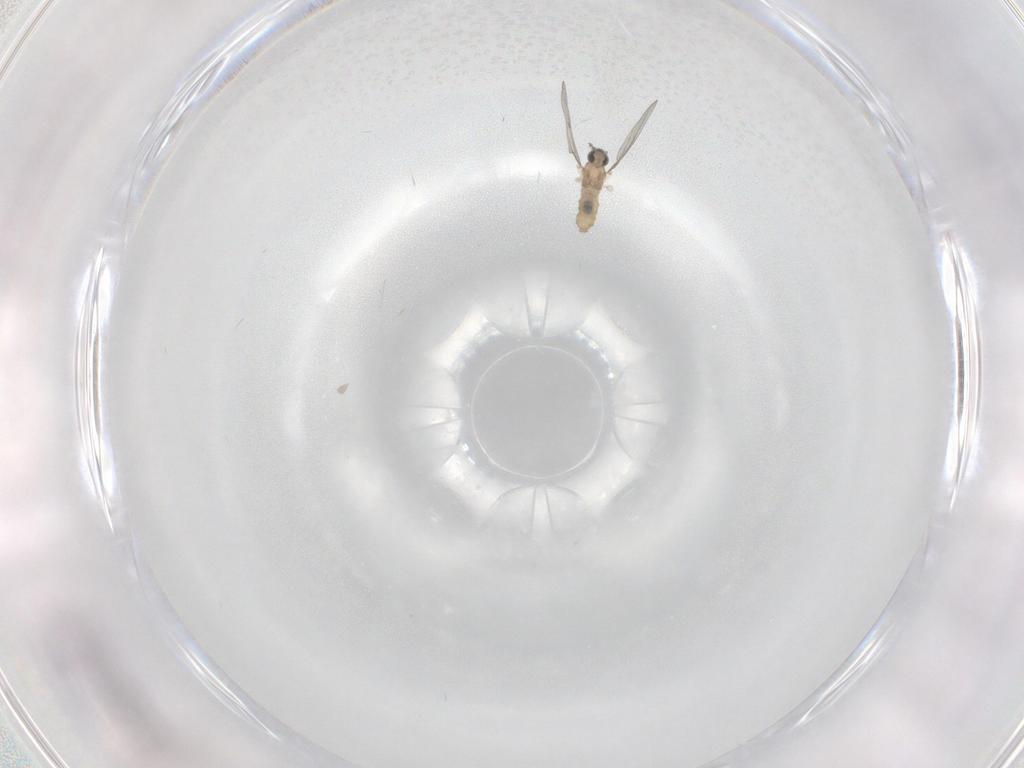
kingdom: Animalia
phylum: Arthropoda
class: Insecta
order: Diptera
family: Cecidomyiidae
